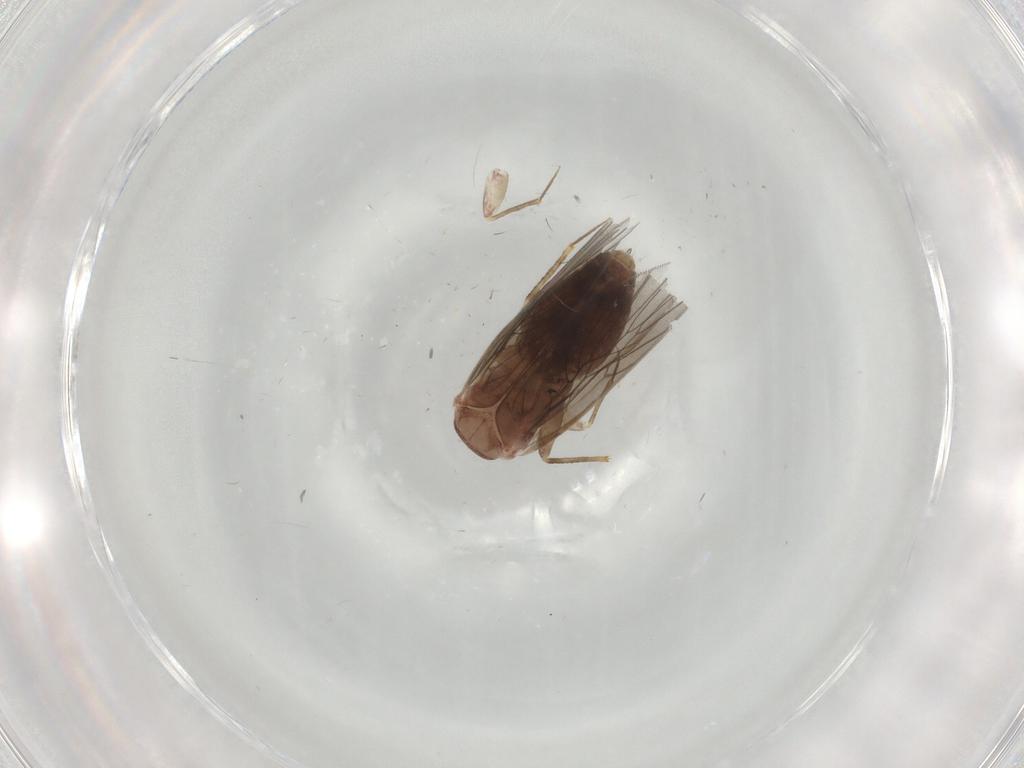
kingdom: Animalia
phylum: Arthropoda
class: Insecta
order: Psocodea
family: Lepidopsocidae
